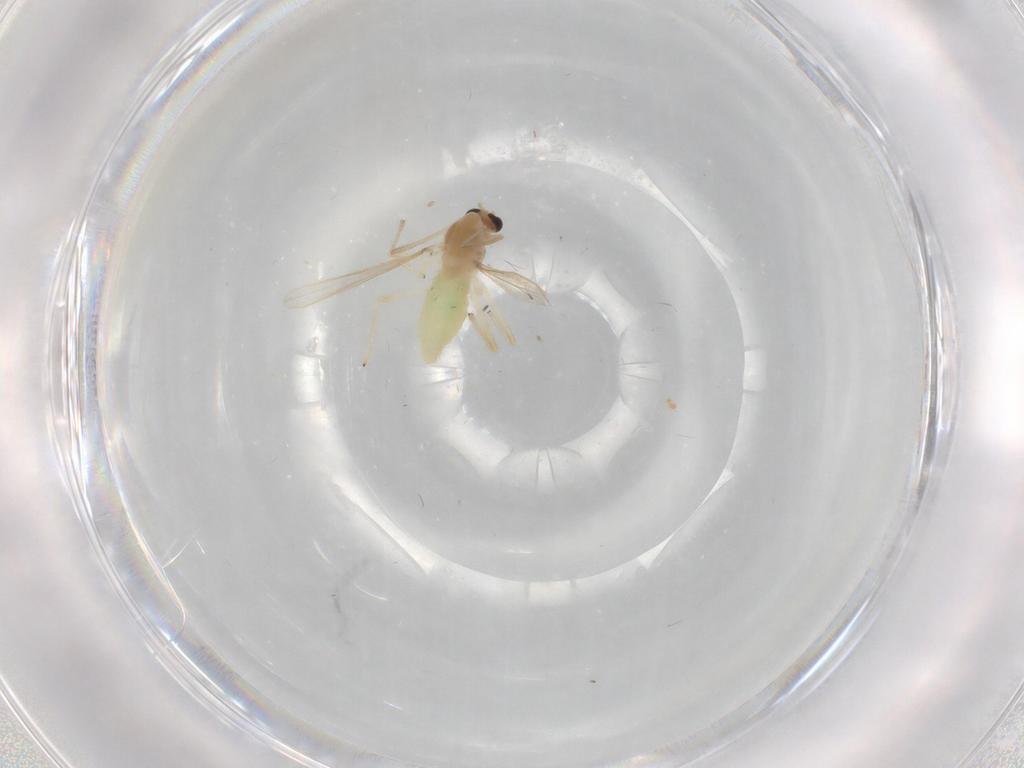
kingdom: Animalia
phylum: Arthropoda
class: Insecta
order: Diptera
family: Chironomidae
